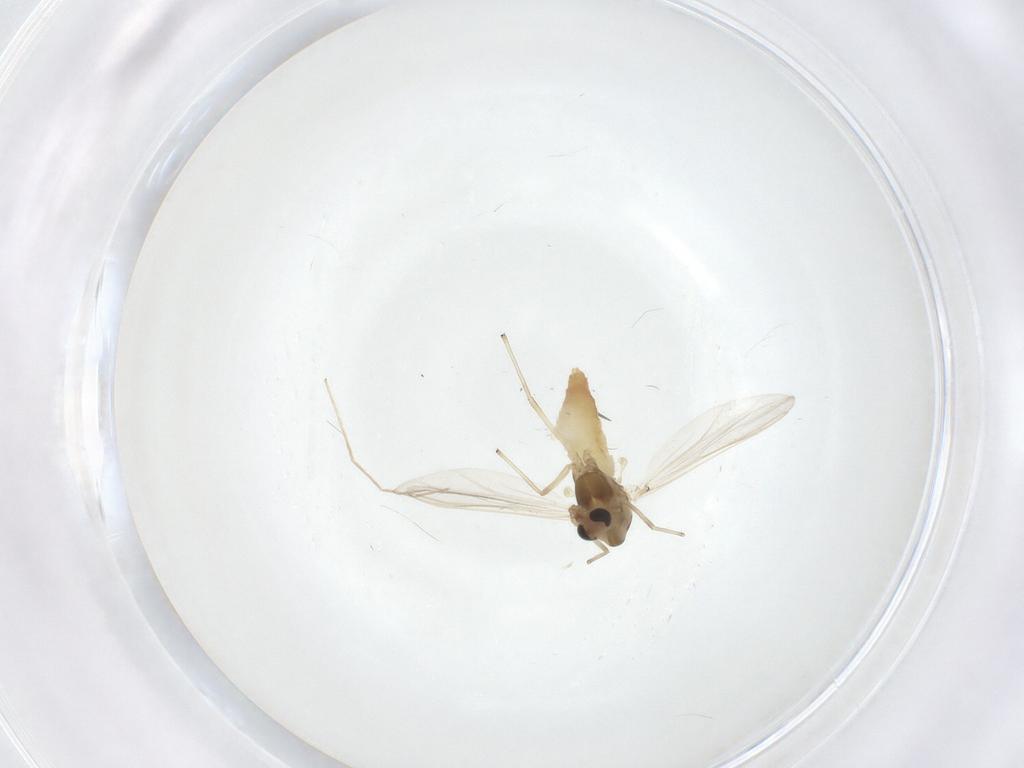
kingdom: Animalia
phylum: Arthropoda
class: Insecta
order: Diptera
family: Chironomidae
